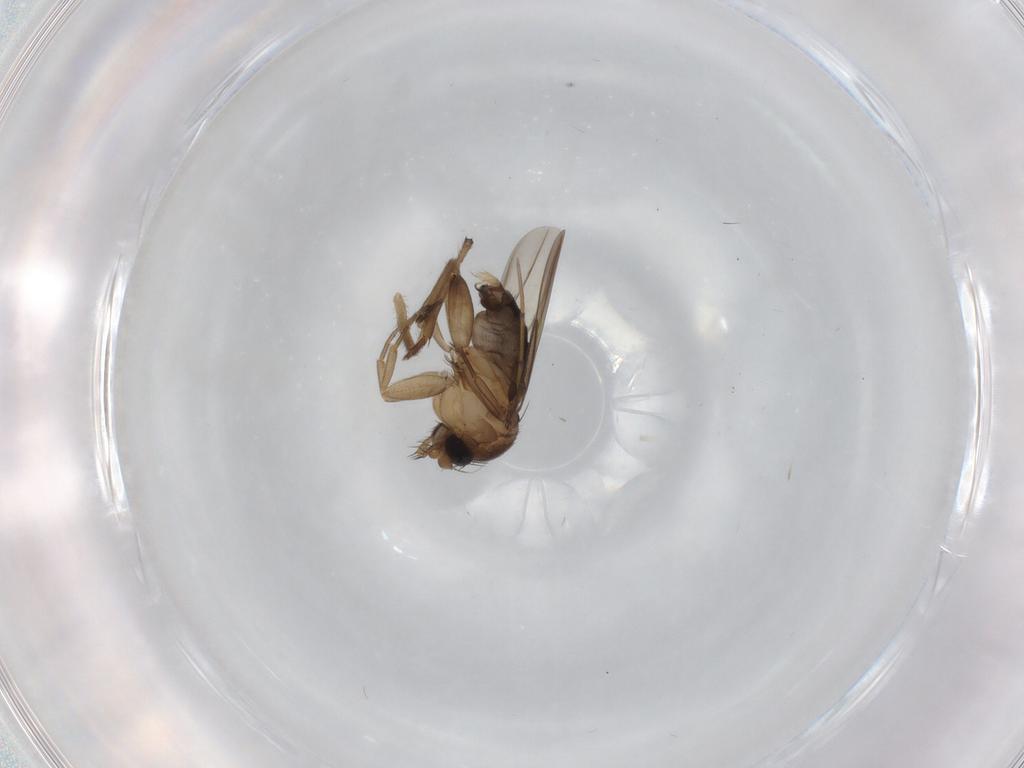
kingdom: Animalia
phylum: Arthropoda
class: Insecta
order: Diptera
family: Phoridae
